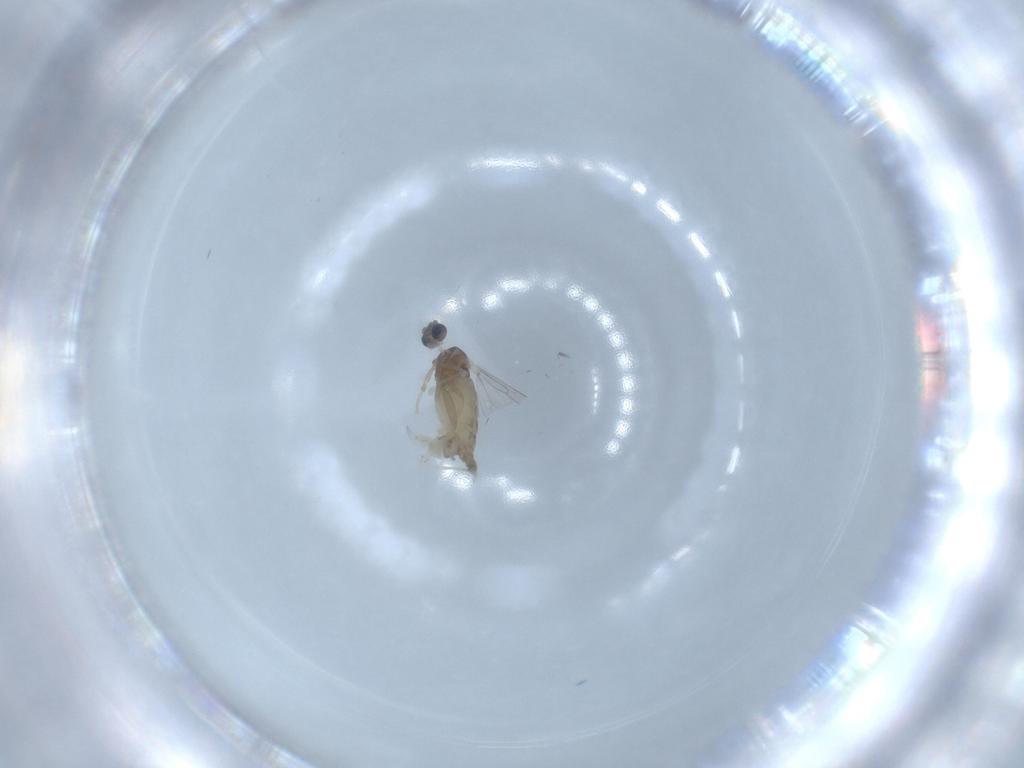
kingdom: Animalia
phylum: Arthropoda
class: Insecta
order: Diptera
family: Cecidomyiidae
